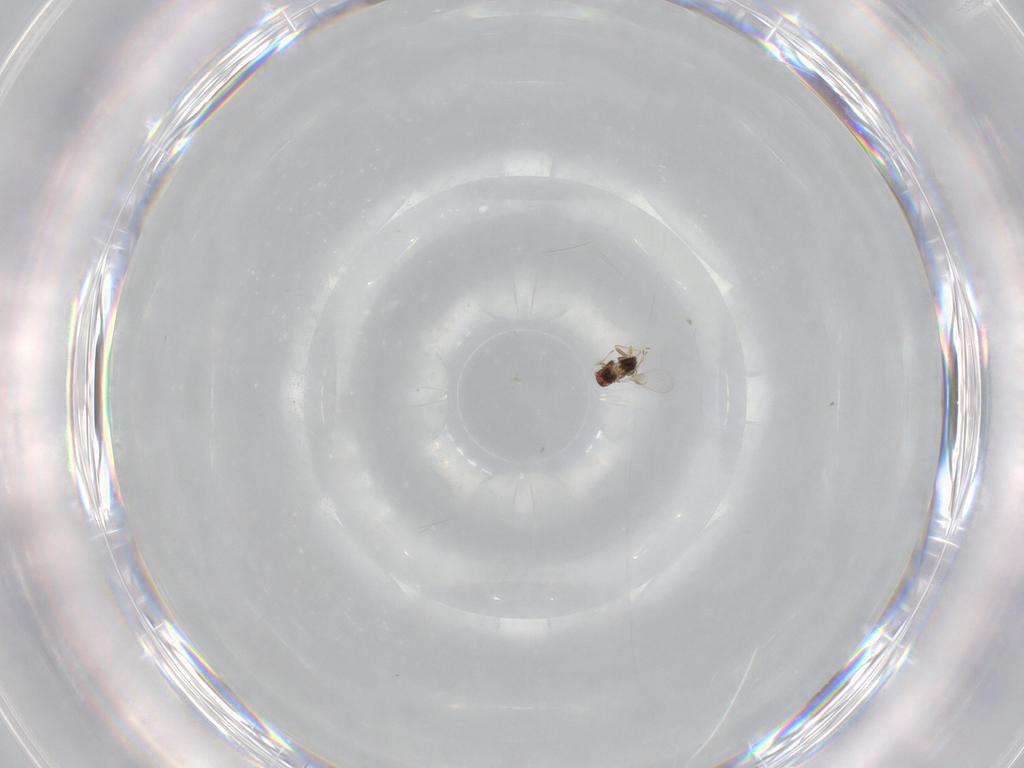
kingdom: Animalia
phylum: Arthropoda
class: Insecta
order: Hymenoptera
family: Trichogrammatidae
